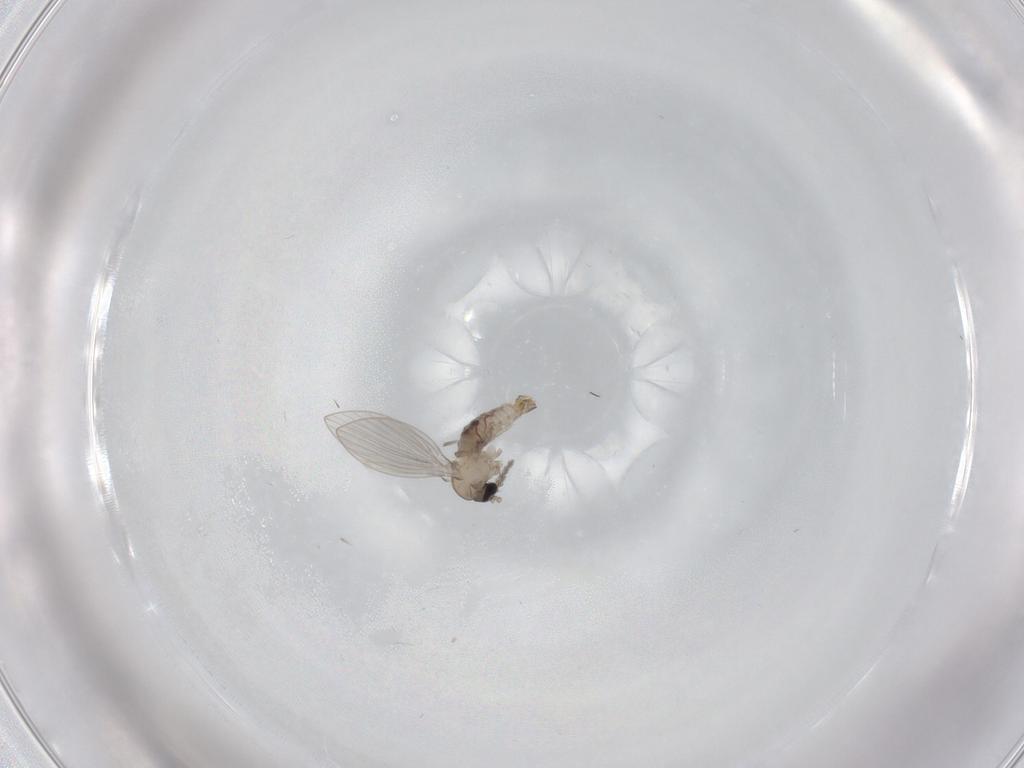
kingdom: Animalia
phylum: Arthropoda
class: Insecta
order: Diptera
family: Psychodidae
